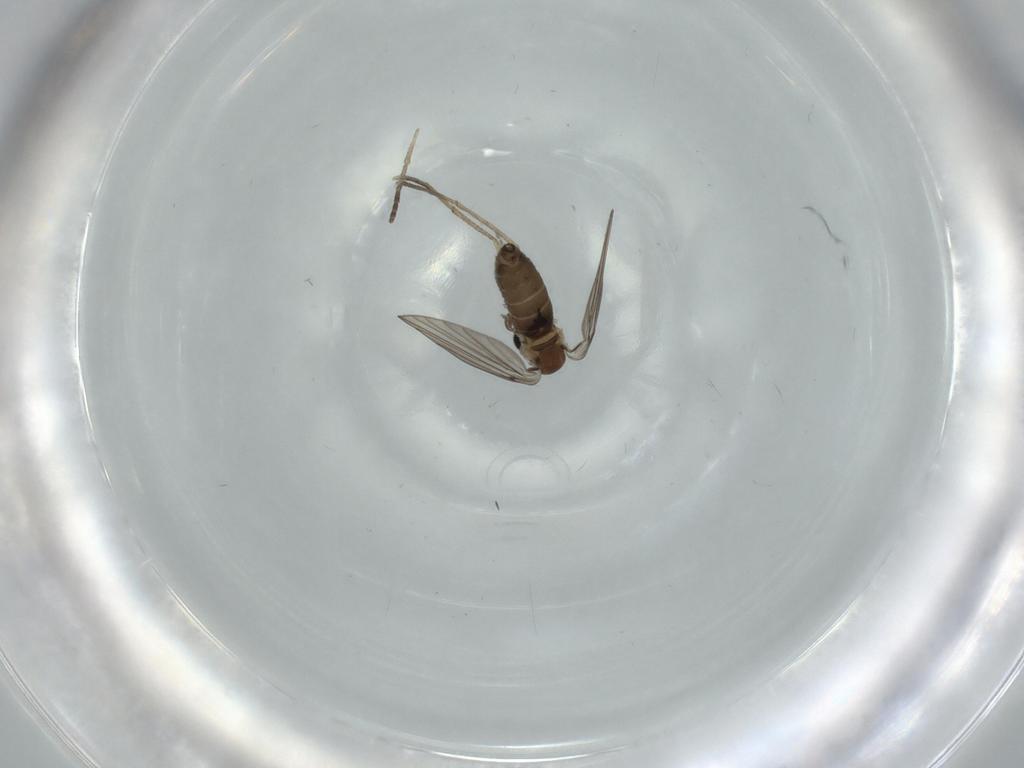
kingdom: Animalia
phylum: Arthropoda
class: Insecta
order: Diptera
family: Psychodidae
